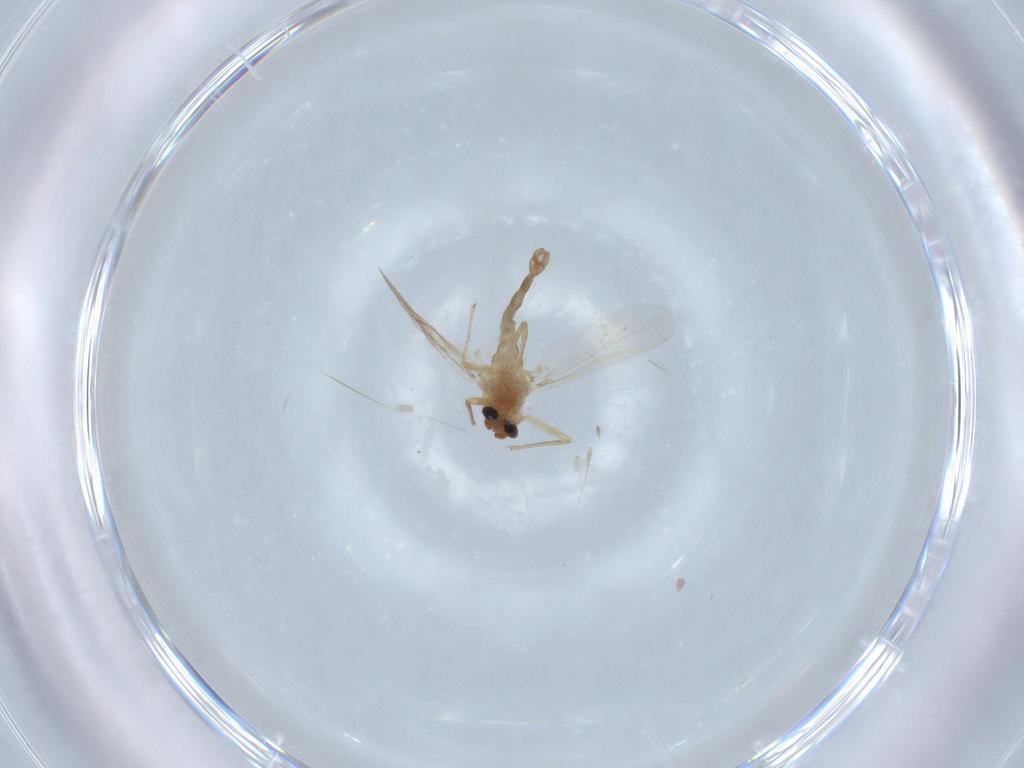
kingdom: Animalia
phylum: Arthropoda
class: Insecta
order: Diptera
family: Chironomidae
